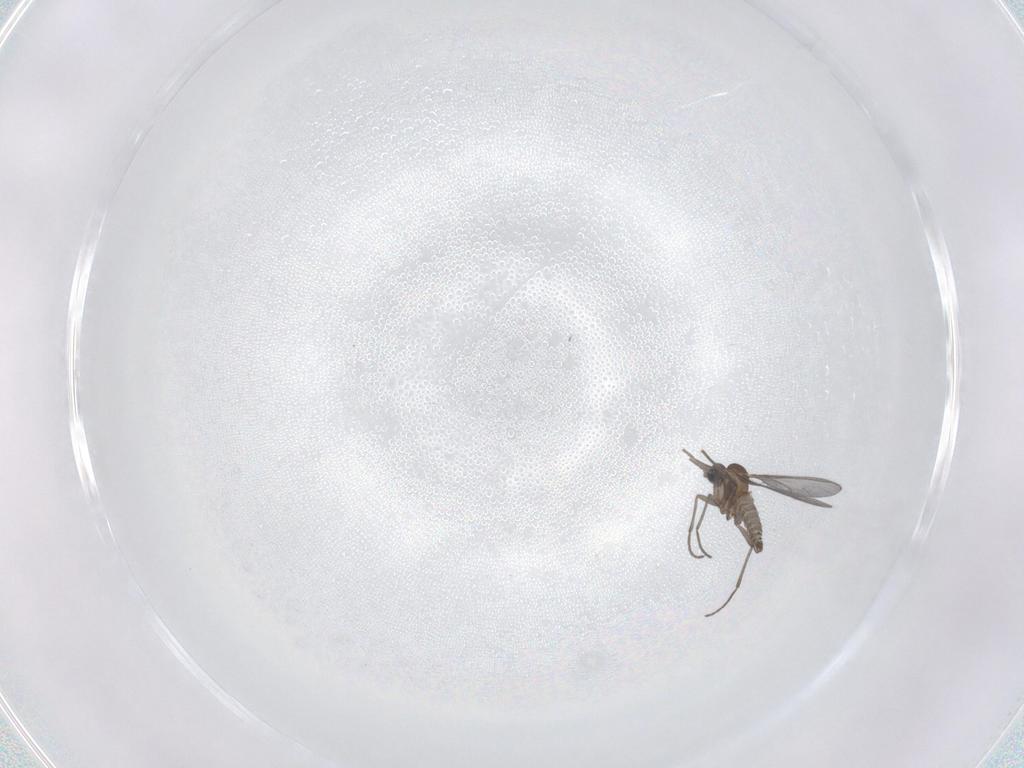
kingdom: Animalia
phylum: Arthropoda
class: Insecta
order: Diptera
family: Sciaridae
